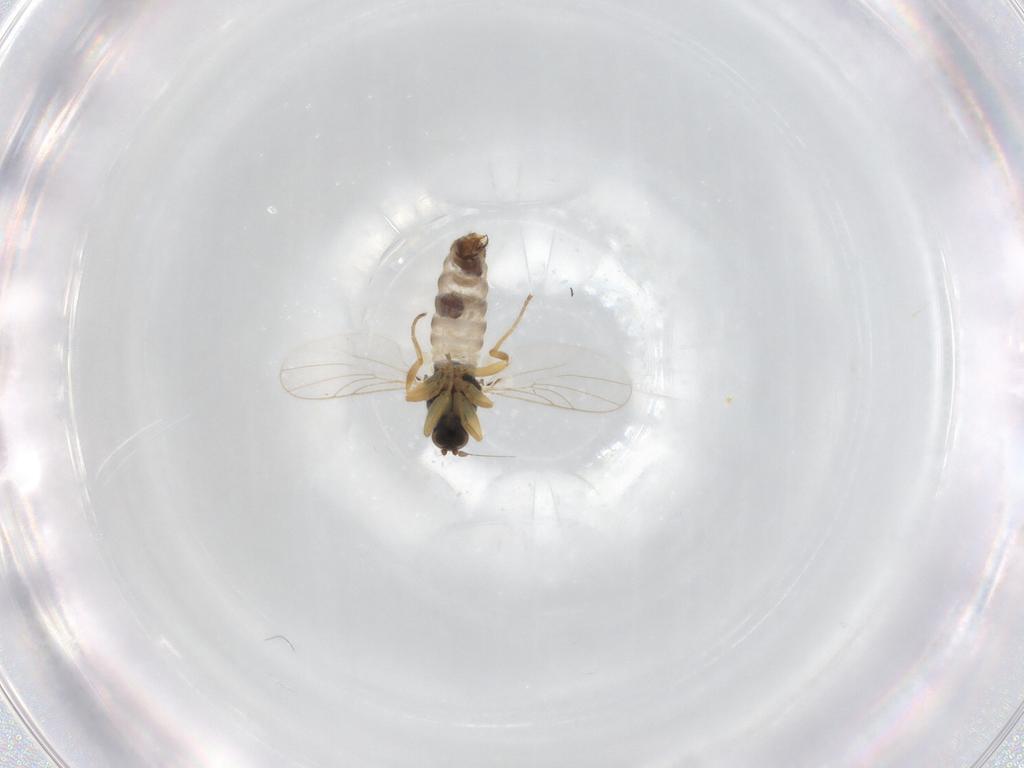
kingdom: Animalia
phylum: Arthropoda
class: Insecta
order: Diptera
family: Hybotidae
